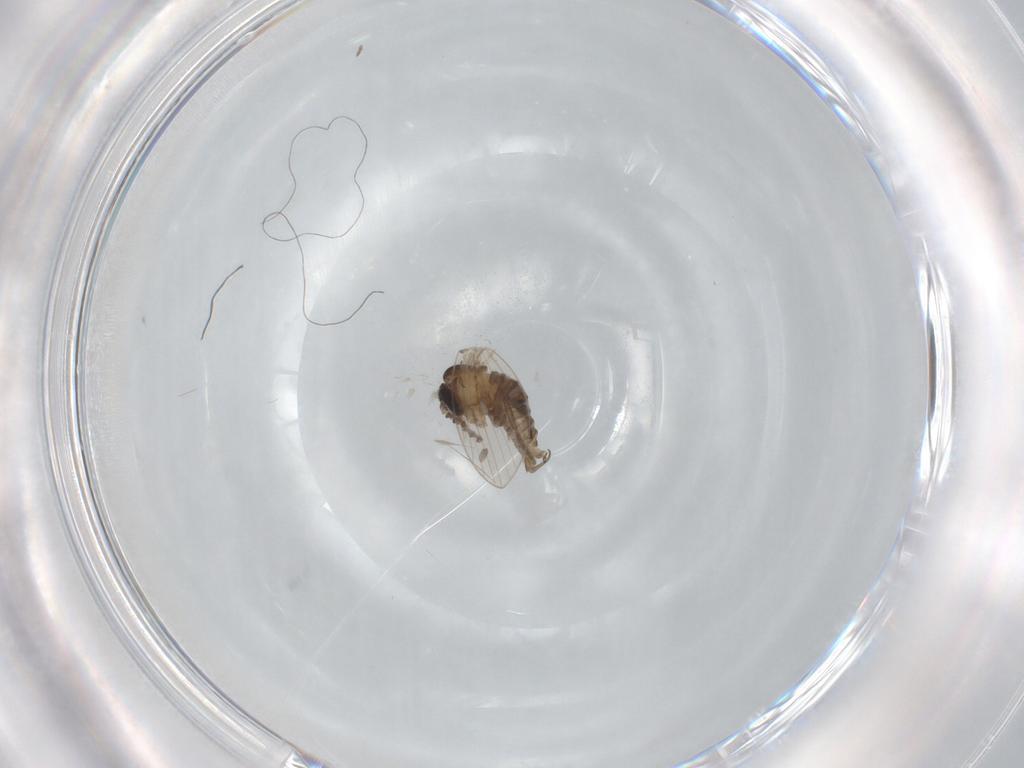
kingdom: Animalia
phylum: Arthropoda
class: Insecta
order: Diptera
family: Psychodidae
